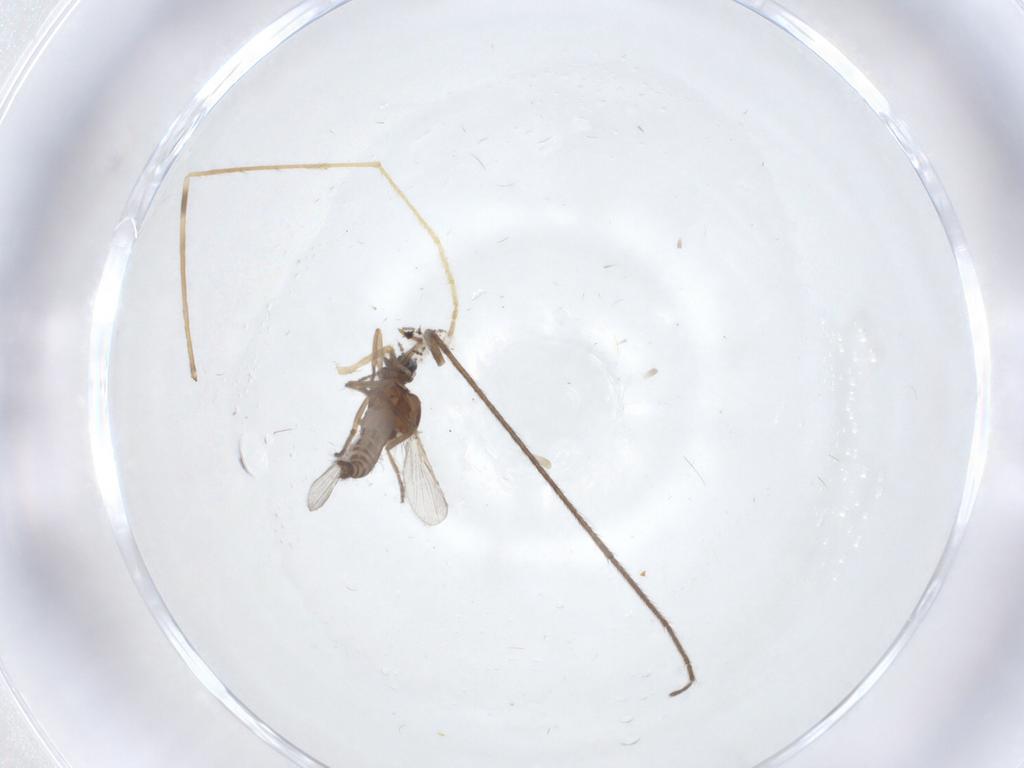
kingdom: Animalia
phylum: Arthropoda
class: Insecta
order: Diptera
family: Ceratopogonidae
